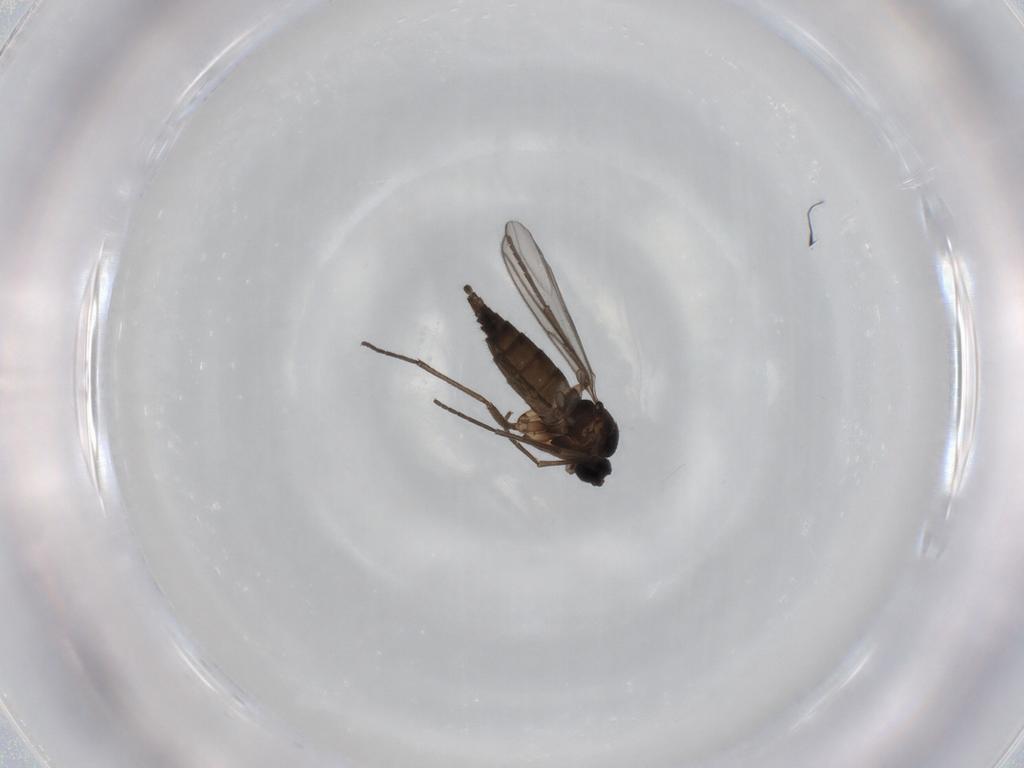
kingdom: Animalia
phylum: Arthropoda
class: Insecta
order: Diptera
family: Sciaridae
